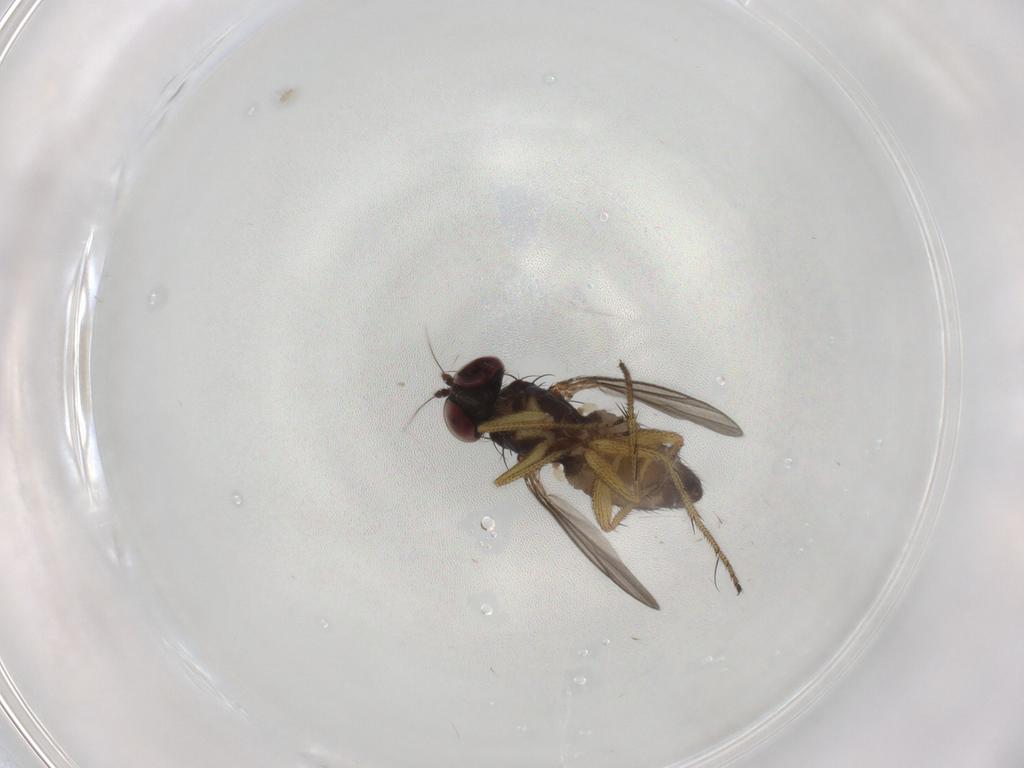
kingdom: Animalia
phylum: Arthropoda
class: Insecta
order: Diptera
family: Dolichopodidae
